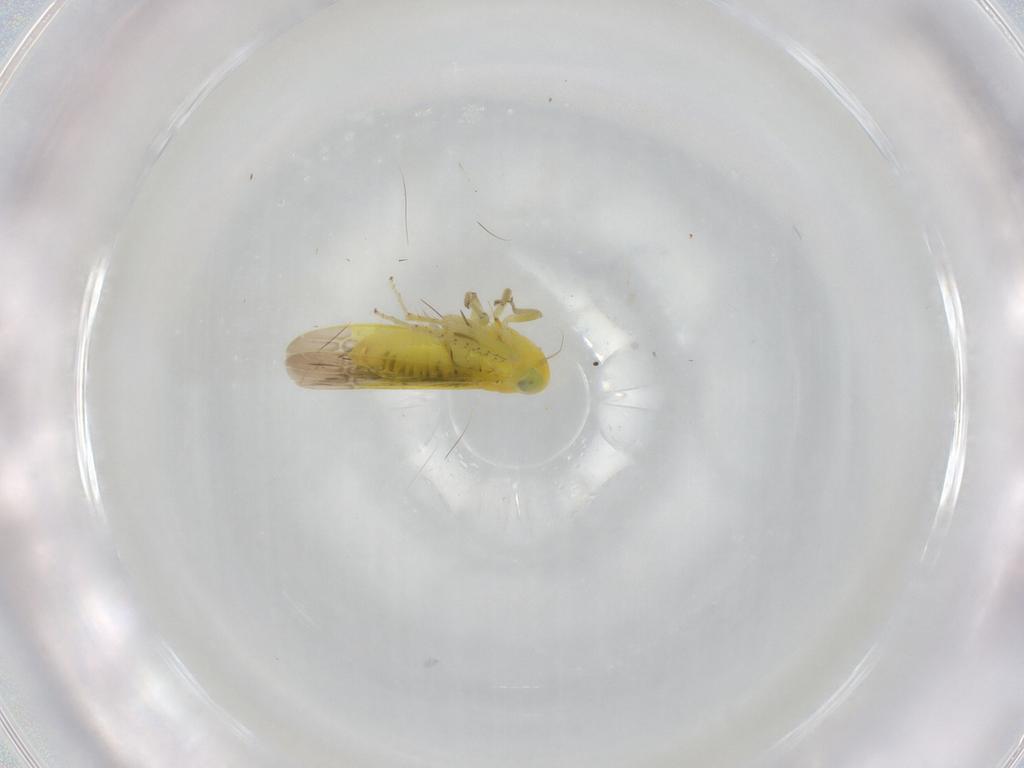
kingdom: Animalia
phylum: Arthropoda
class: Insecta
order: Hemiptera
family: Cicadellidae
